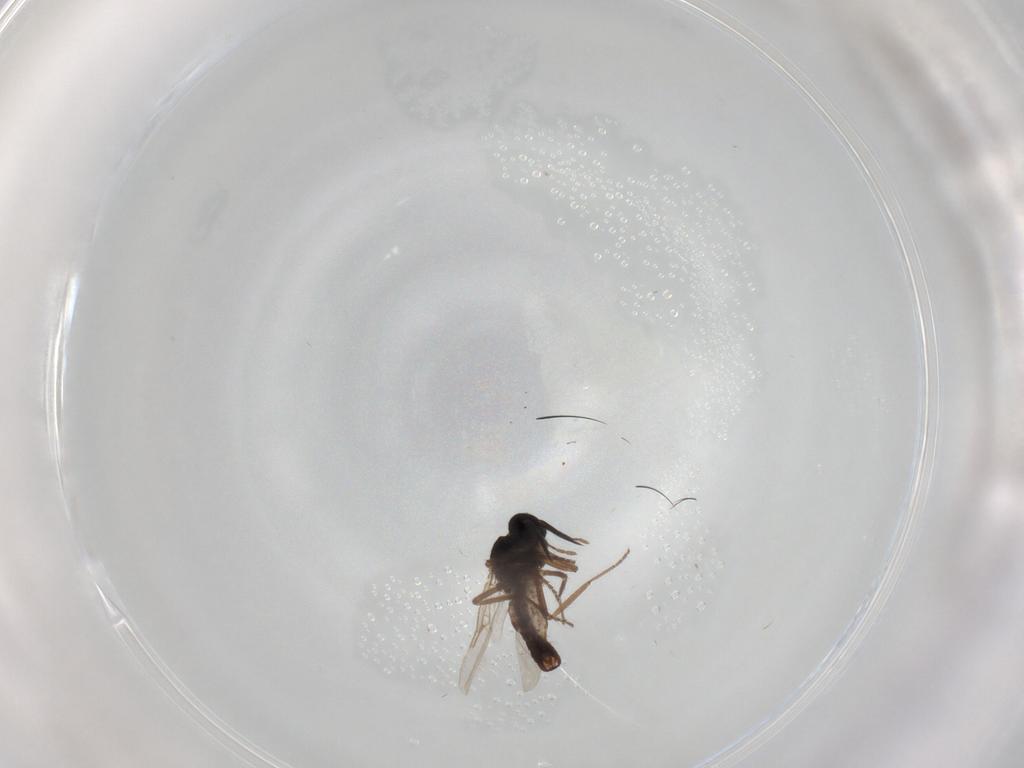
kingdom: Animalia
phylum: Arthropoda
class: Insecta
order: Diptera
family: Ceratopogonidae
